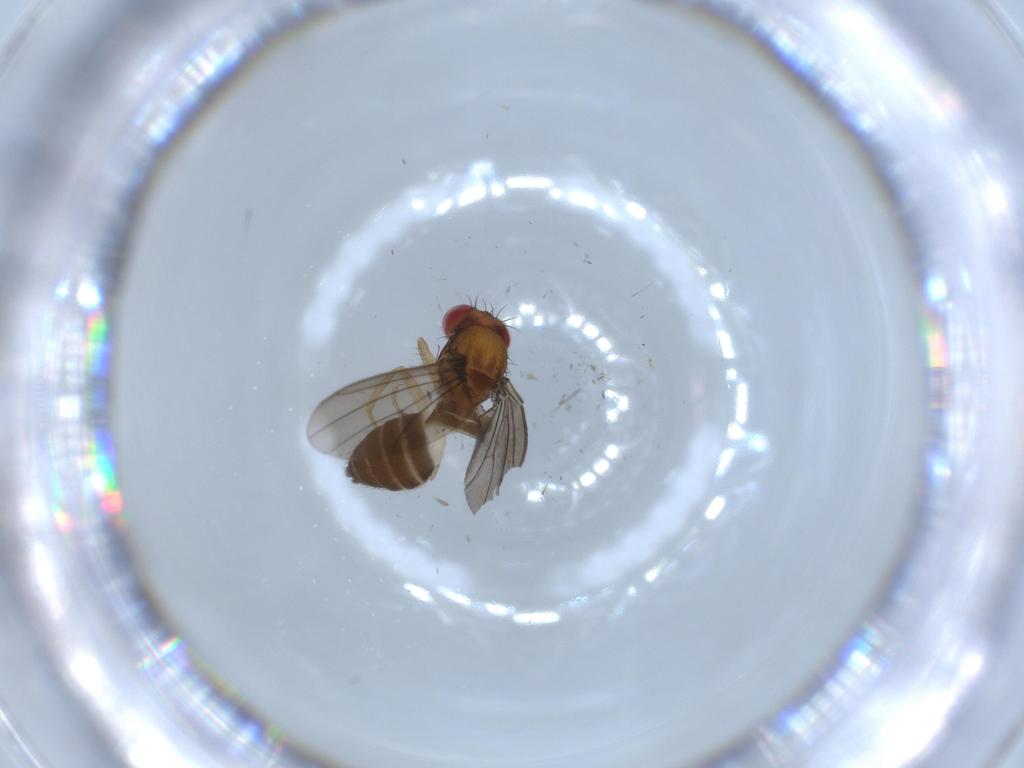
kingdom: Animalia
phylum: Arthropoda
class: Insecta
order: Diptera
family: Drosophilidae
